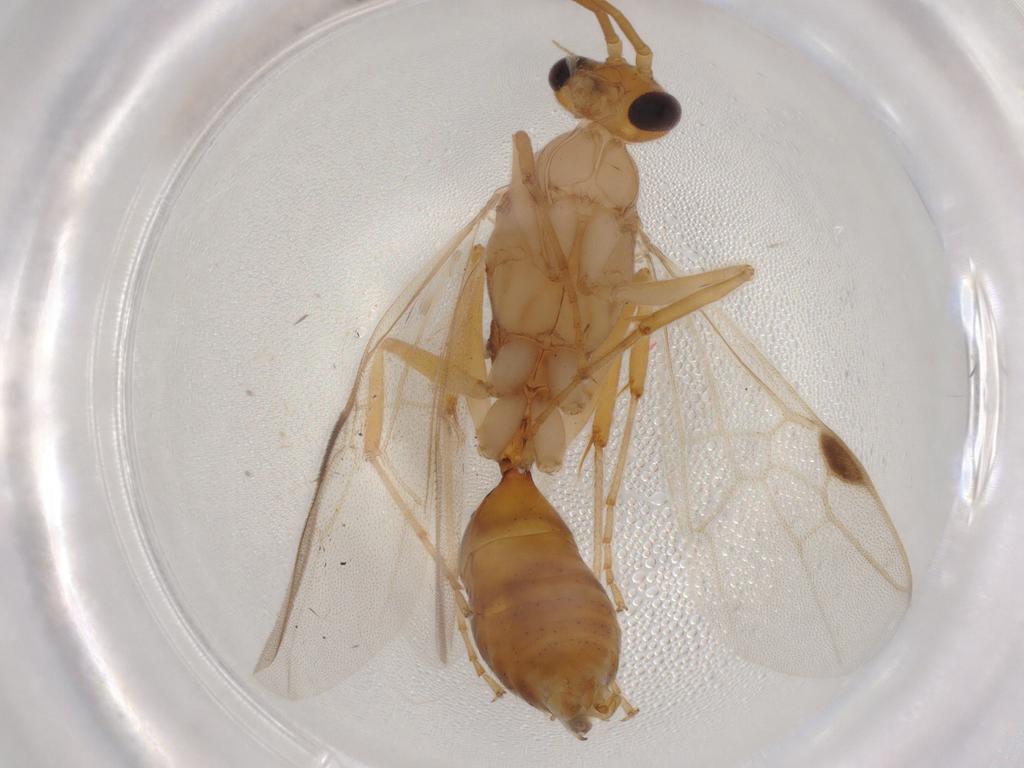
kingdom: Animalia
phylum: Arthropoda
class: Insecta
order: Hymenoptera
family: Formicidae
